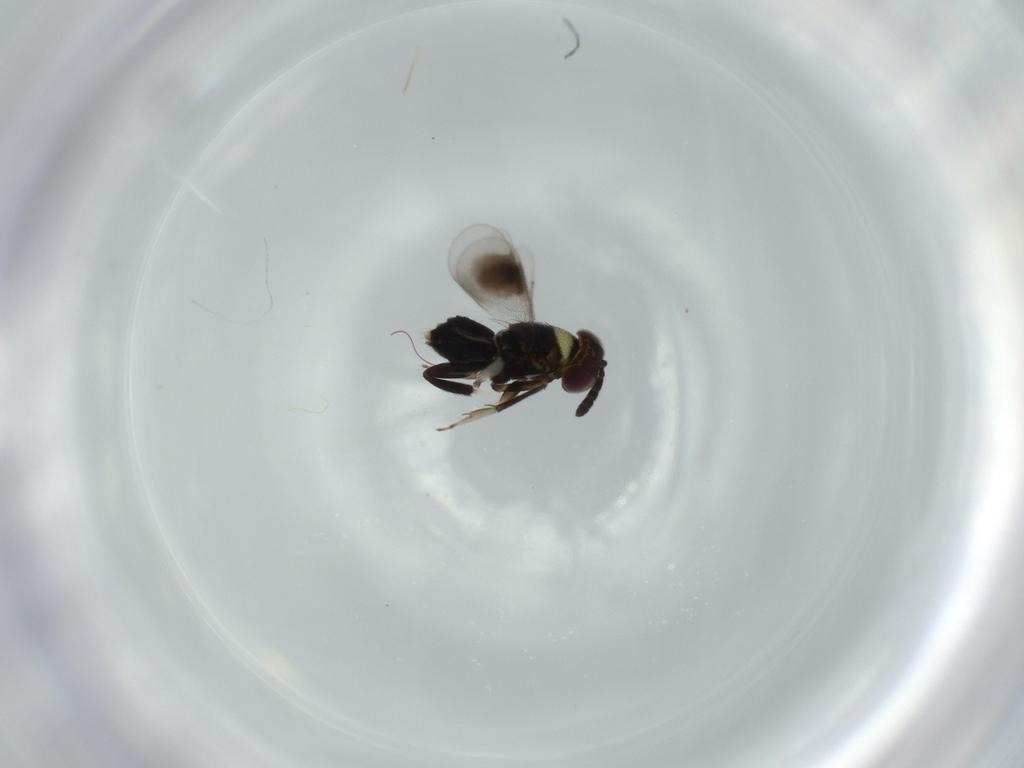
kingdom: Animalia
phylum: Arthropoda
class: Insecta
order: Hymenoptera
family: Aphelinidae
